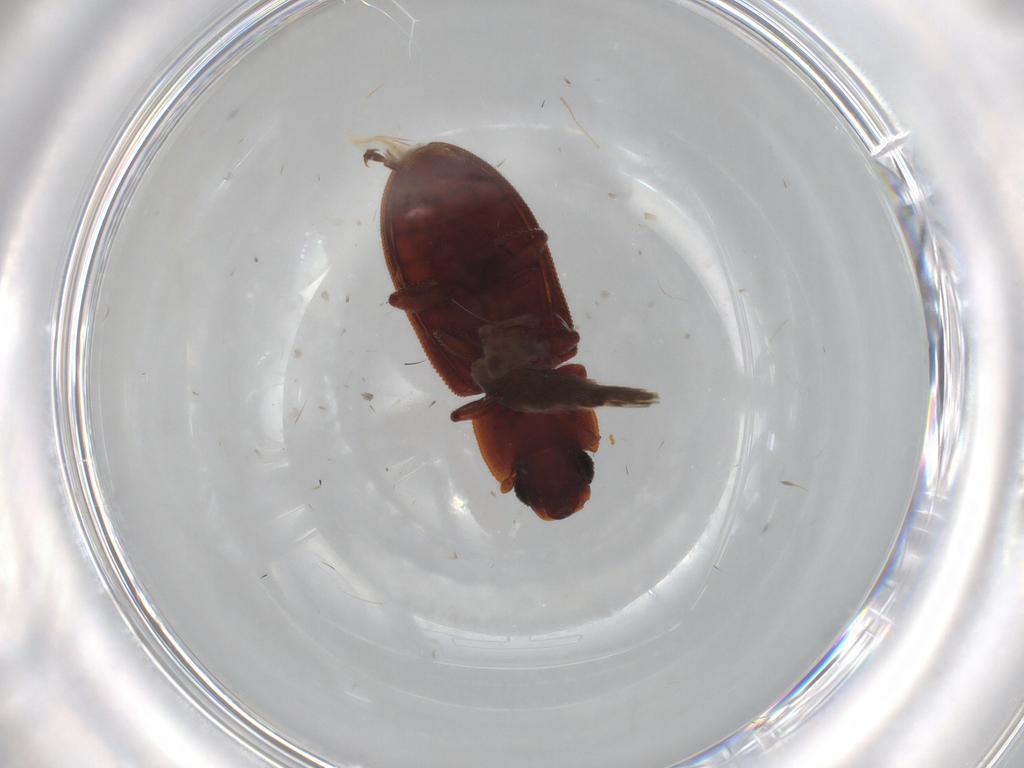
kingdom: Animalia
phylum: Arthropoda
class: Insecta
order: Coleoptera
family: Zopheridae
